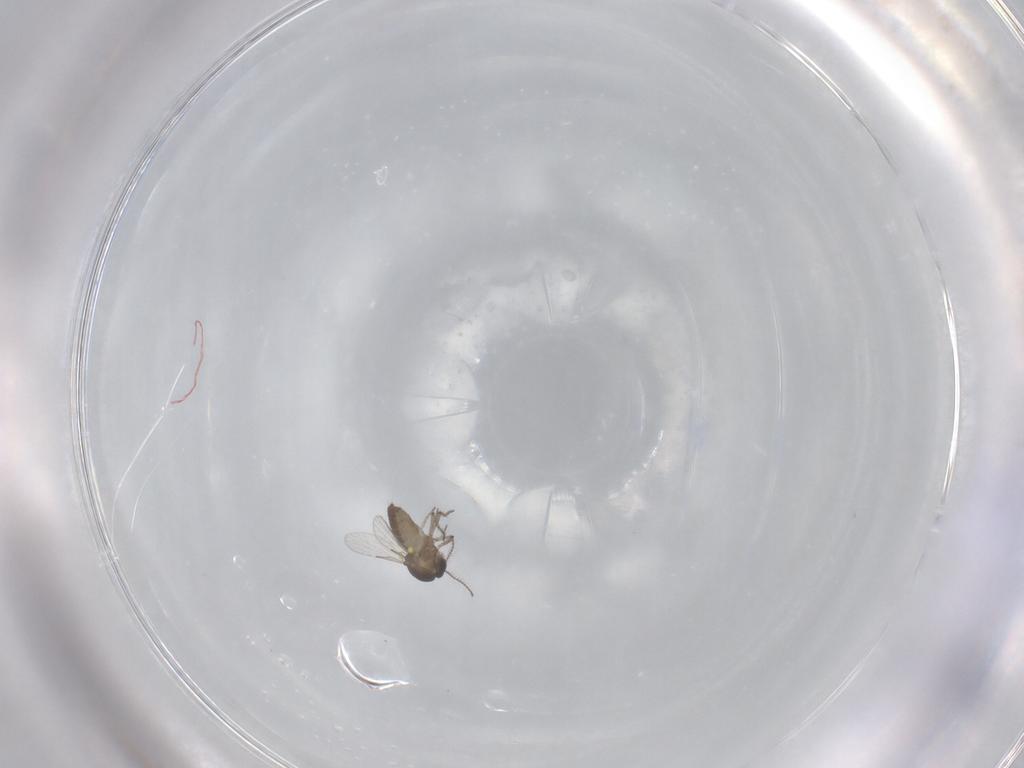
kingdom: Animalia
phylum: Arthropoda
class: Insecta
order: Diptera
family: Ceratopogonidae
